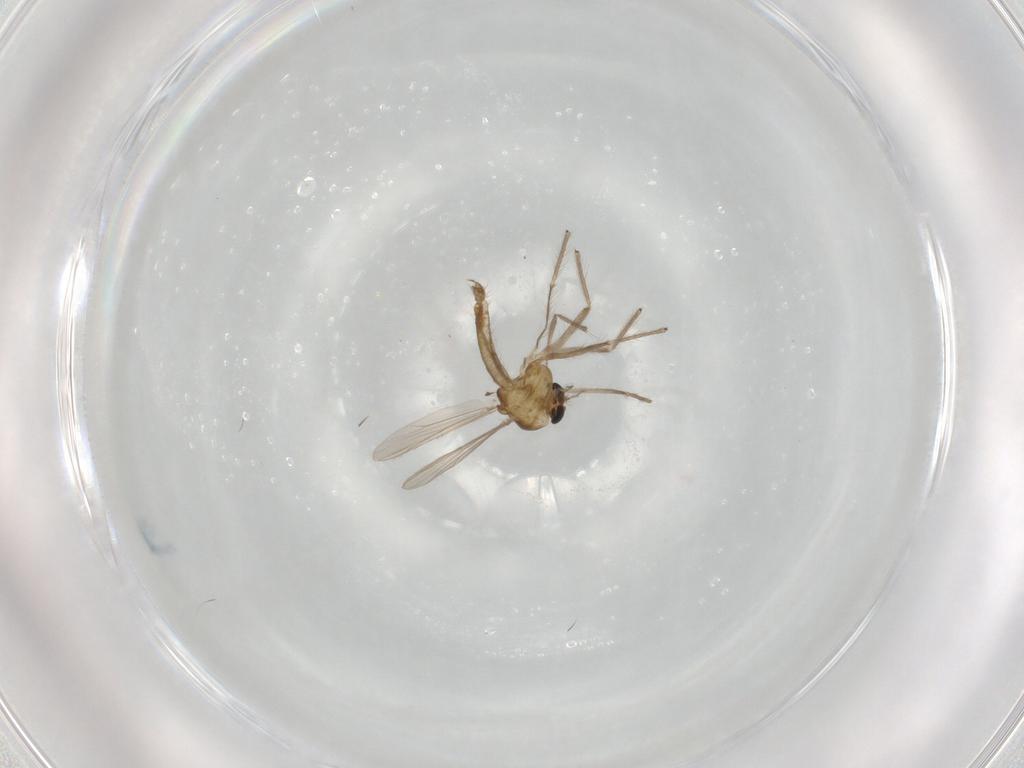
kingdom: Animalia
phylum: Arthropoda
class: Insecta
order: Diptera
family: Chironomidae
